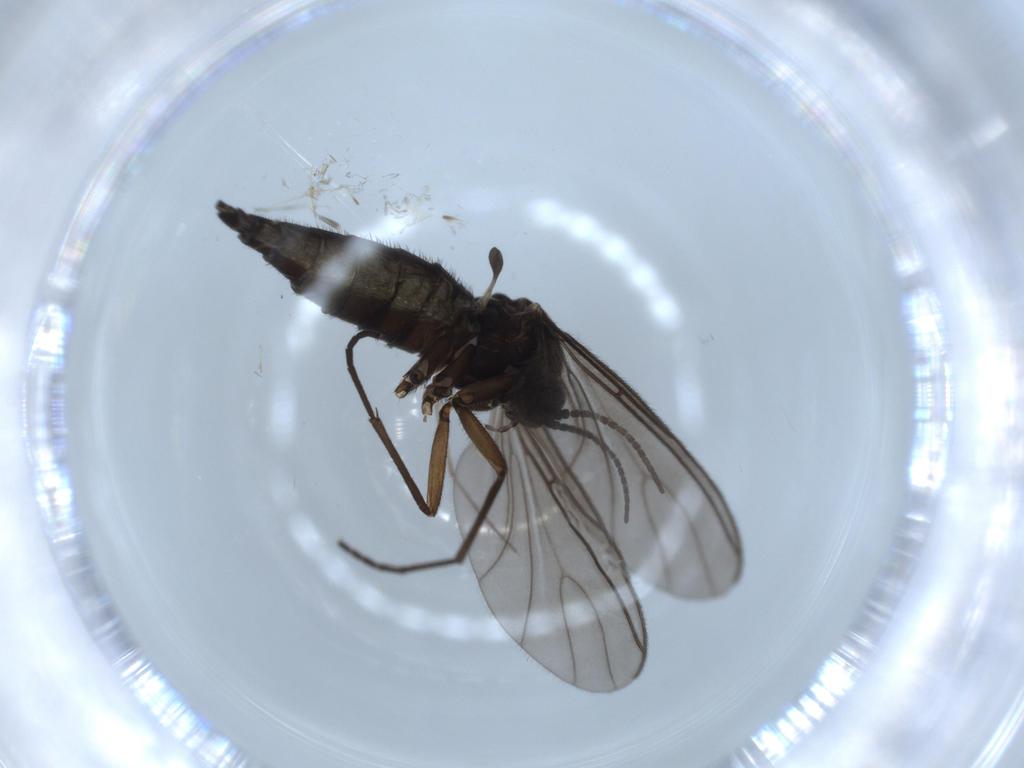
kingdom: Animalia
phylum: Arthropoda
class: Insecta
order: Diptera
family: Sciaridae
